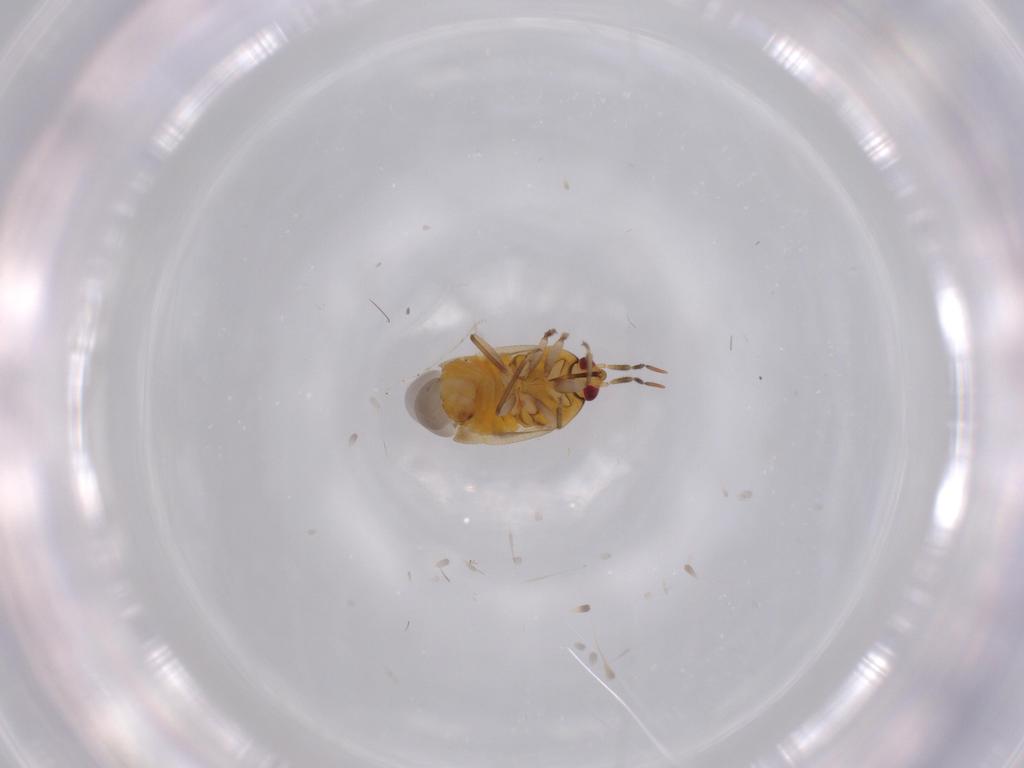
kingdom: Animalia
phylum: Arthropoda
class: Insecta
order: Hemiptera
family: Anthocoridae
